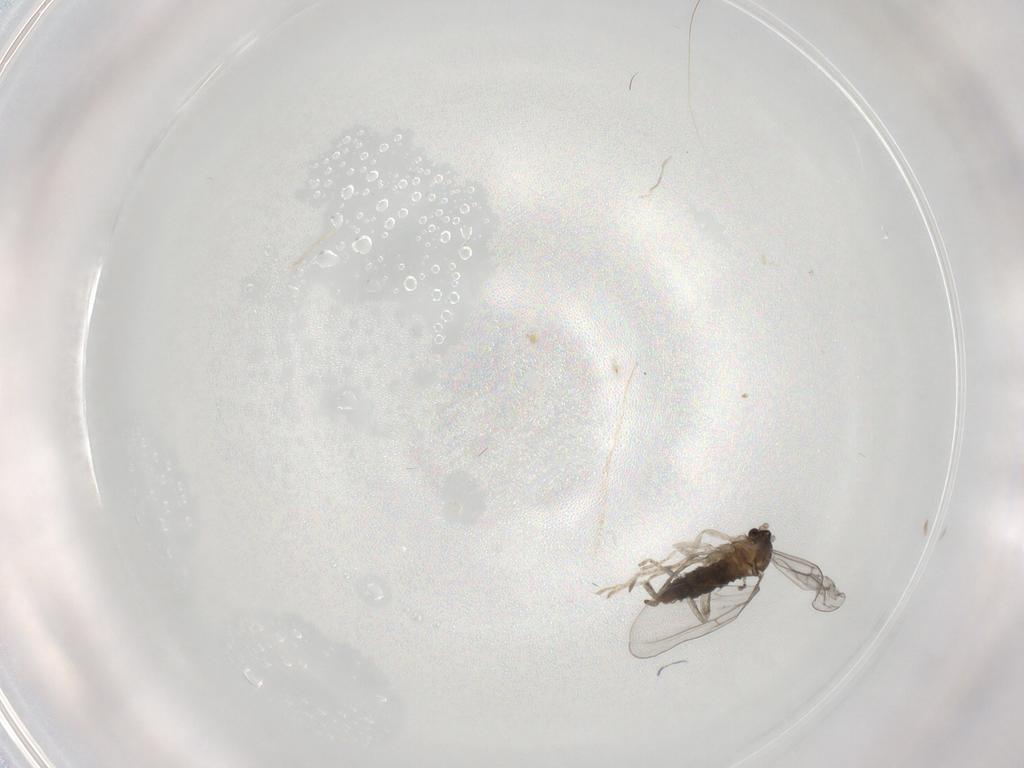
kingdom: Animalia
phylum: Arthropoda
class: Insecta
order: Diptera
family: Cecidomyiidae
